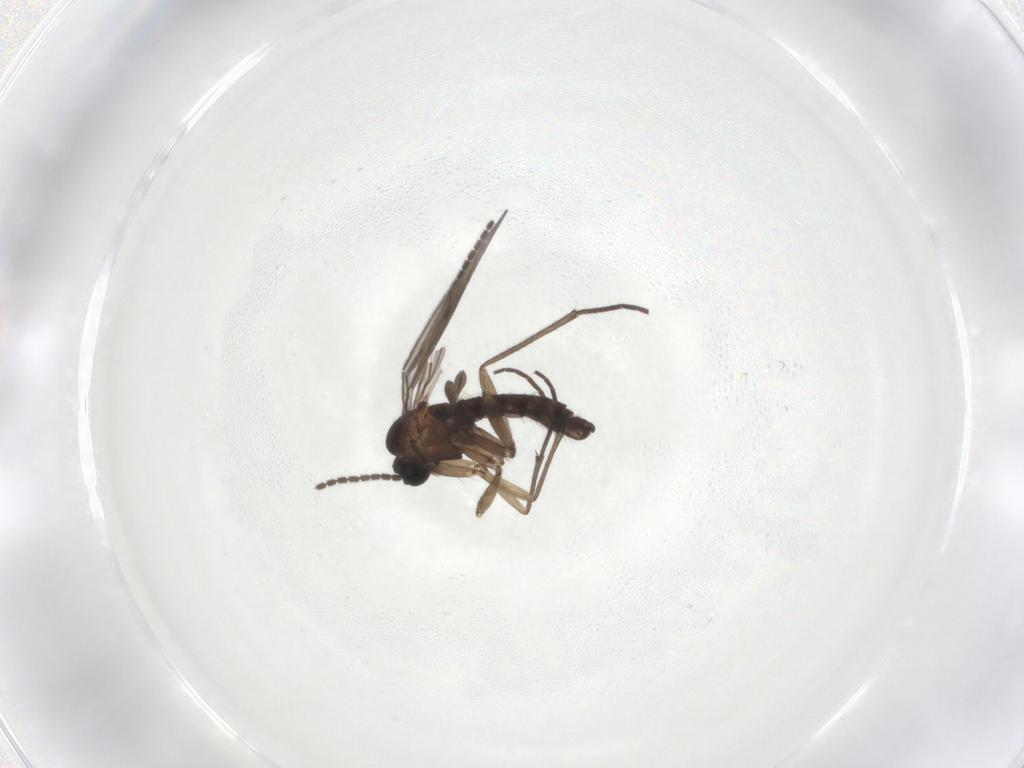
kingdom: Animalia
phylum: Arthropoda
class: Insecta
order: Diptera
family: Sciaridae
